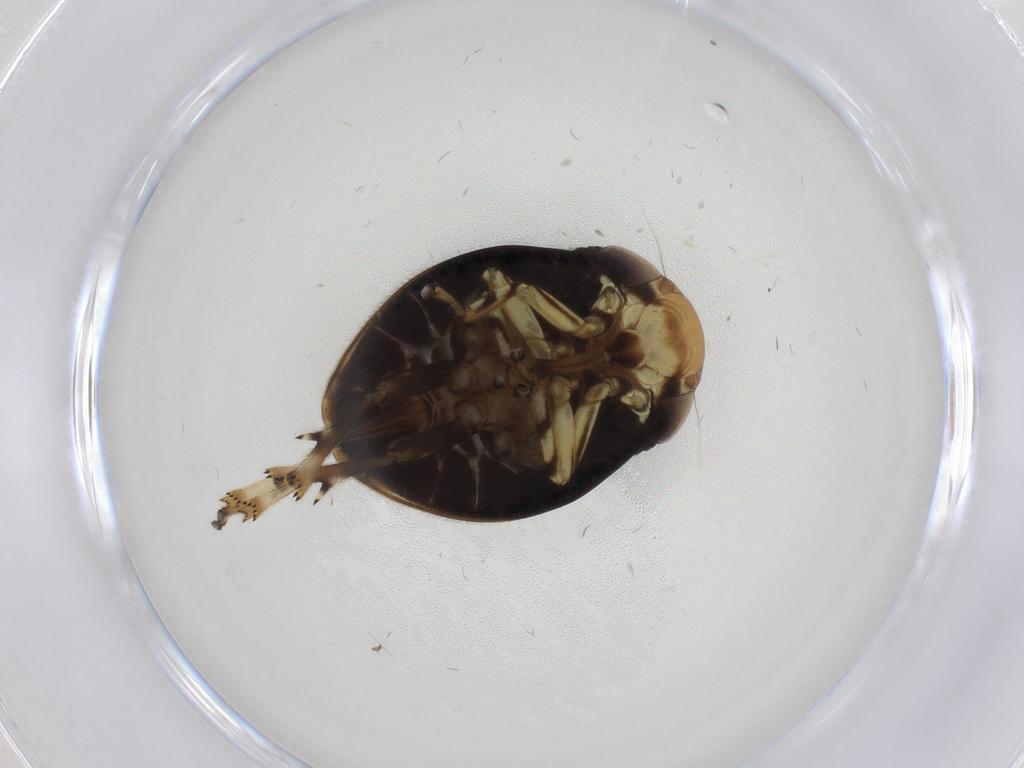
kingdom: Animalia
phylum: Arthropoda
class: Insecta
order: Hemiptera
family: Clastopteridae
